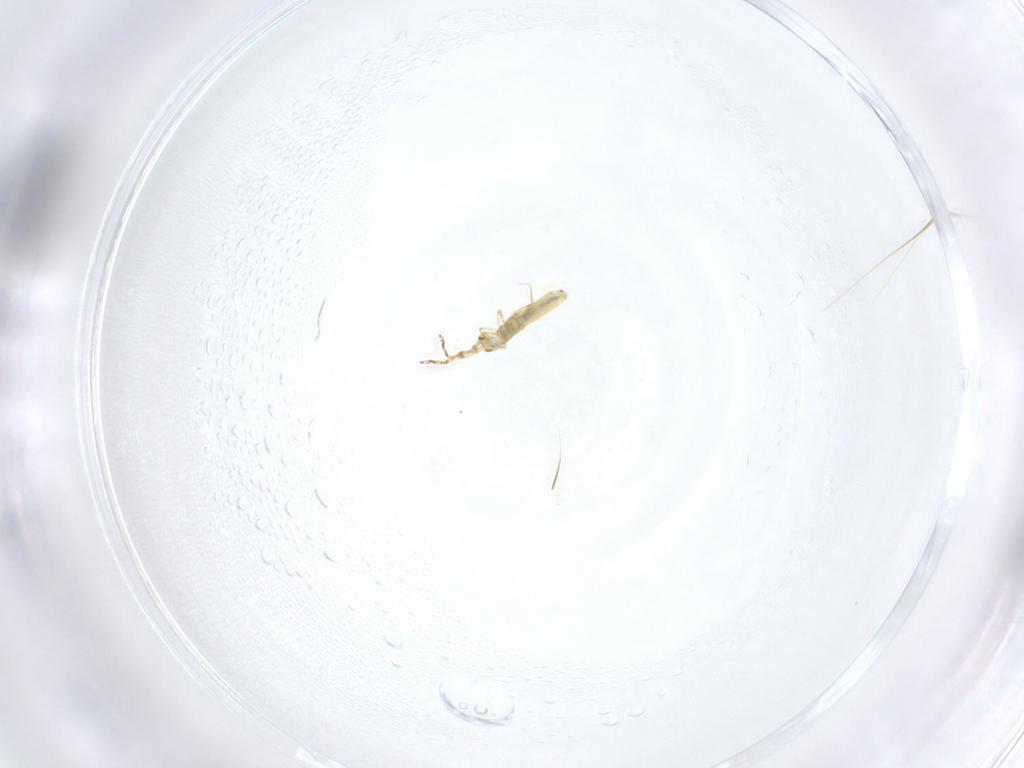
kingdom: Animalia
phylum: Arthropoda
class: Collembola
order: Entomobryomorpha
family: Entomobryidae
